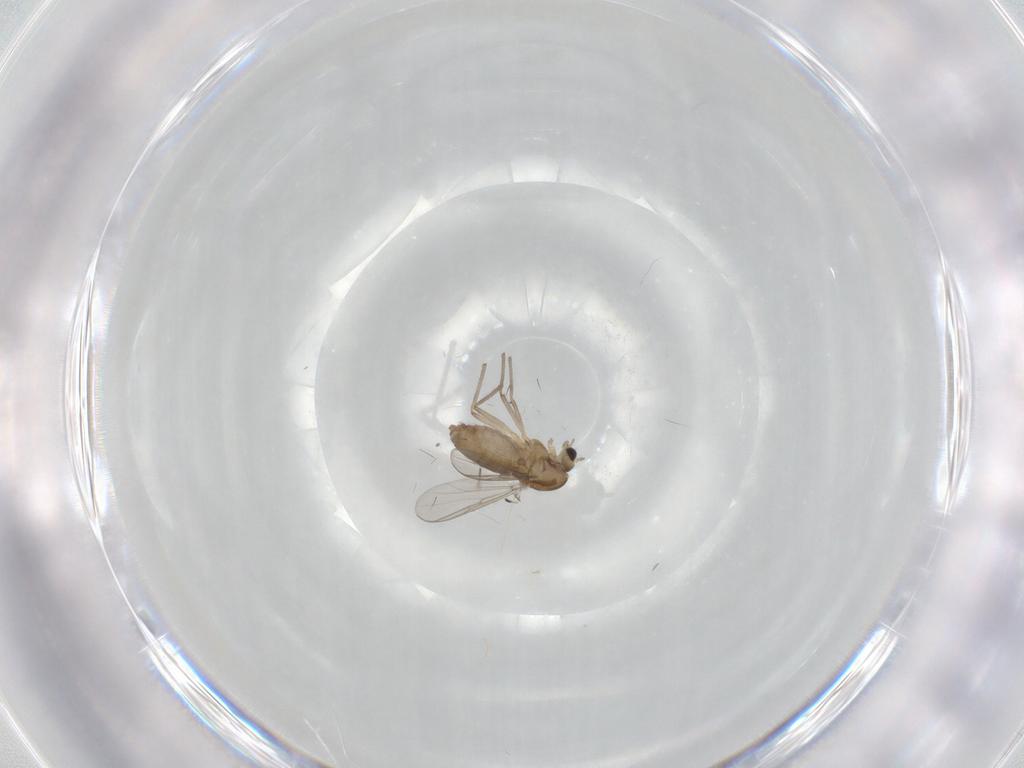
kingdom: Animalia
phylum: Arthropoda
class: Insecta
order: Diptera
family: Chironomidae
